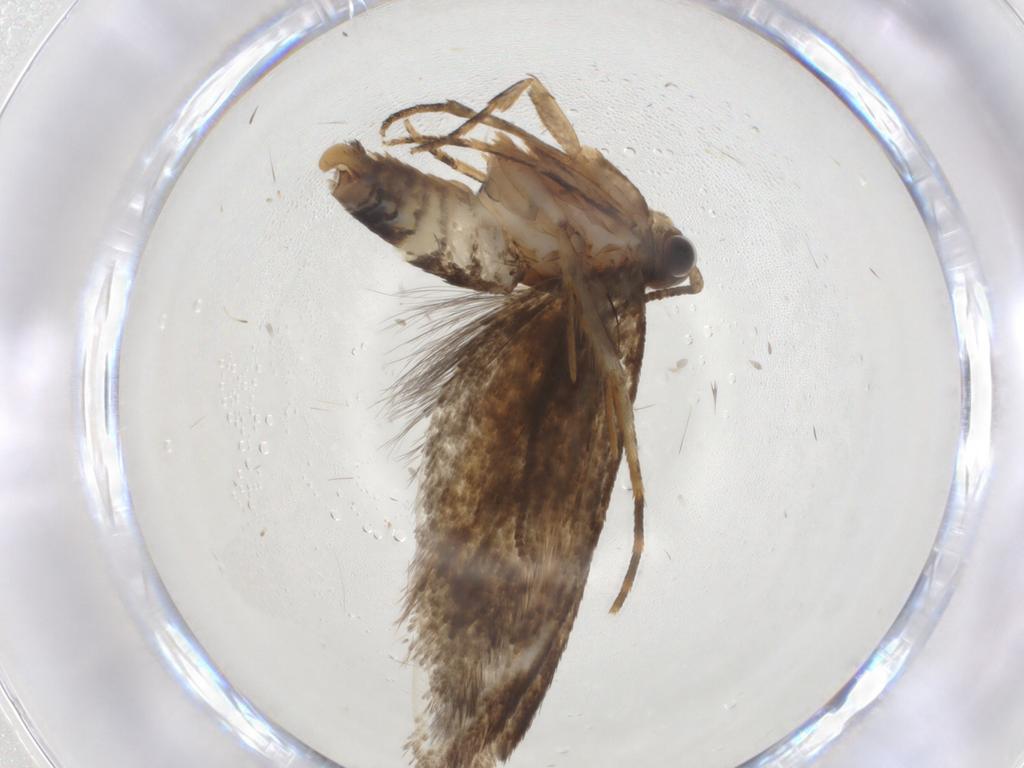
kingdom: Animalia
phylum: Arthropoda
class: Insecta
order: Lepidoptera
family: Crambidae
